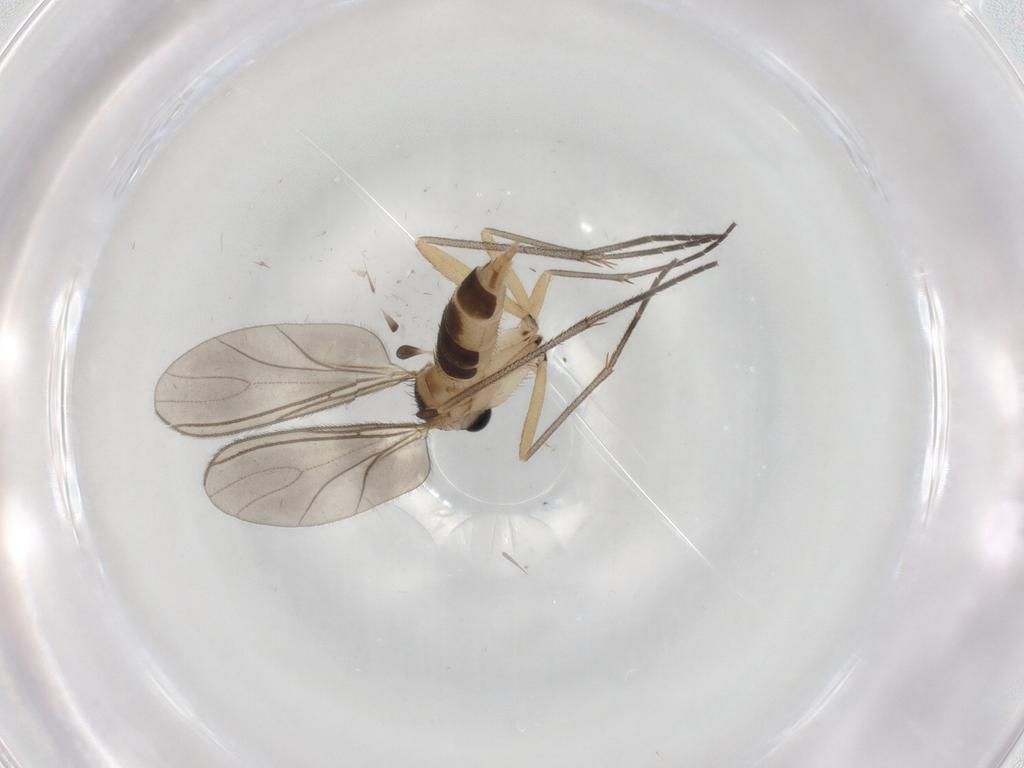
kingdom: Animalia
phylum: Arthropoda
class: Insecta
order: Diptera
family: Sciaridae
